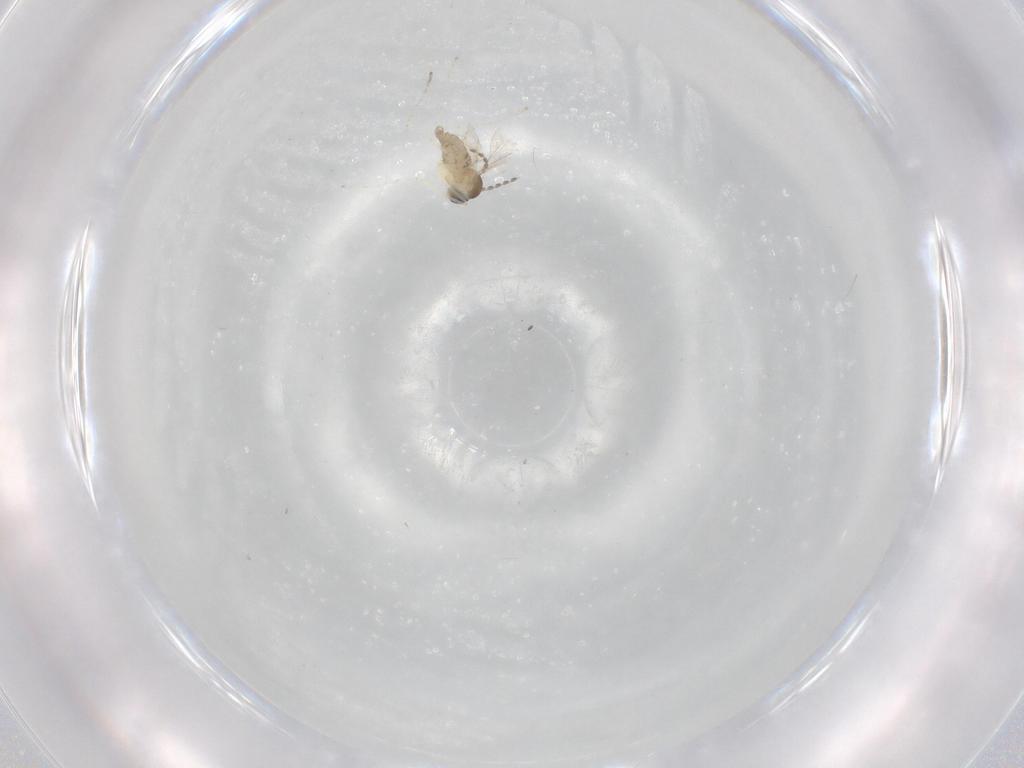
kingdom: Animalia
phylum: Arthropoda
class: Insecta
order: Diptera
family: Cecidomyiidae
